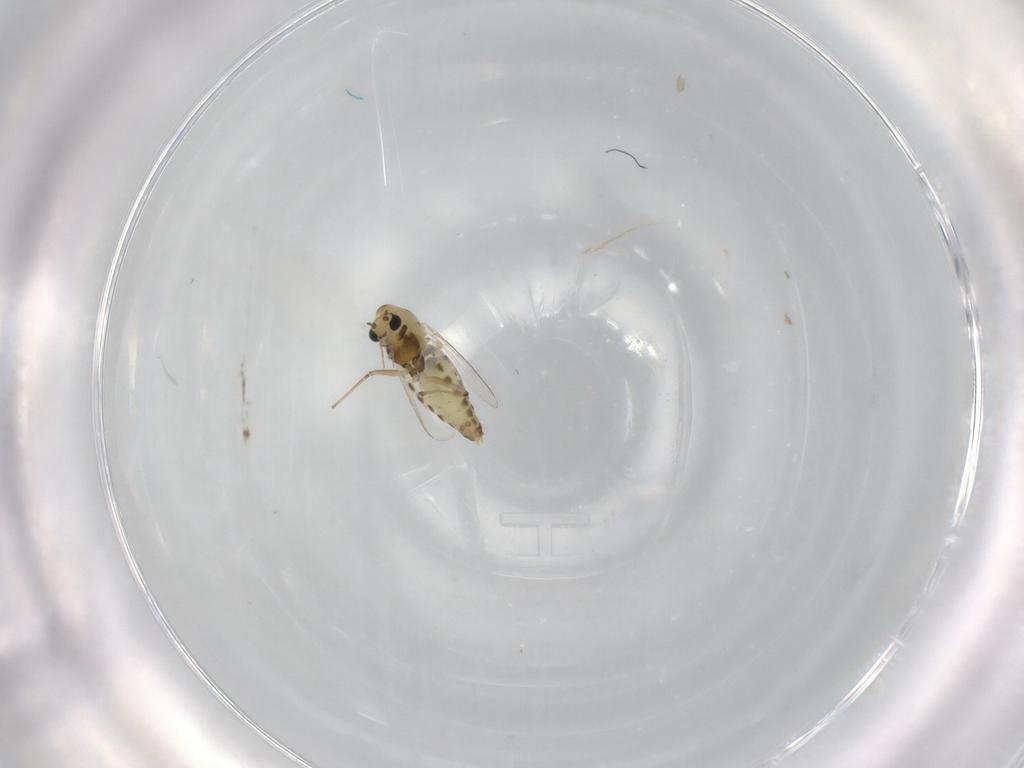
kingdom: Animalia
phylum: Arthropoda
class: Insecta
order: Diptera
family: Chironomidae
